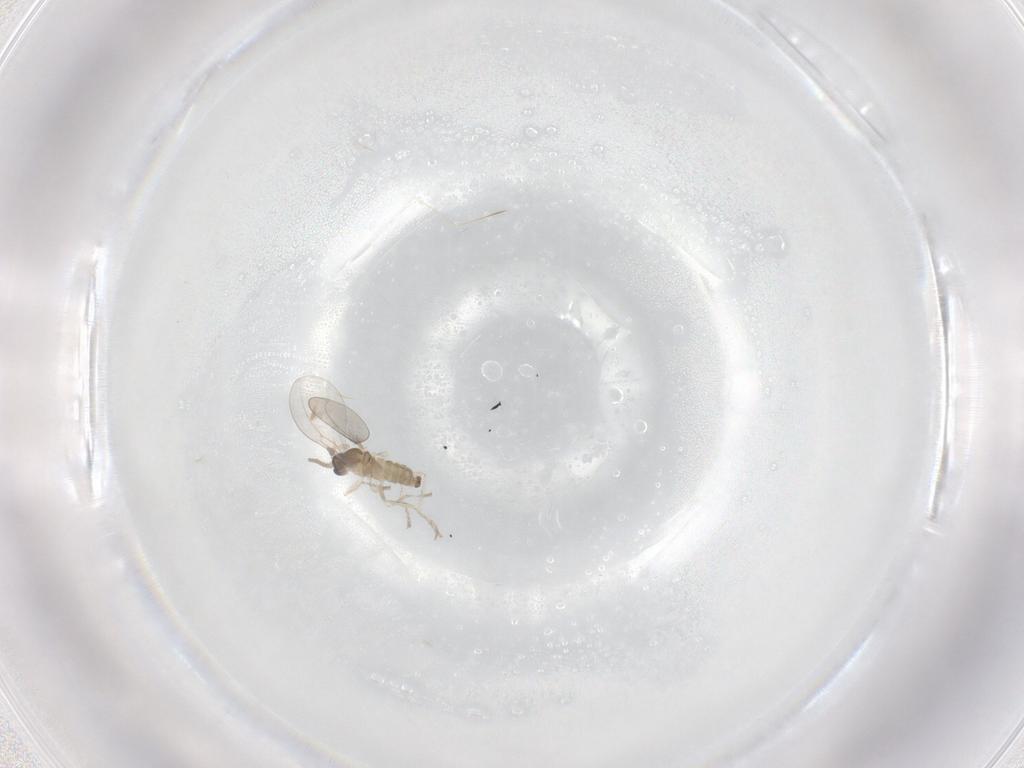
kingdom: Animalia
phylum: Arthropoda
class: Insecta
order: Diptera
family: Cecidomyiidae
